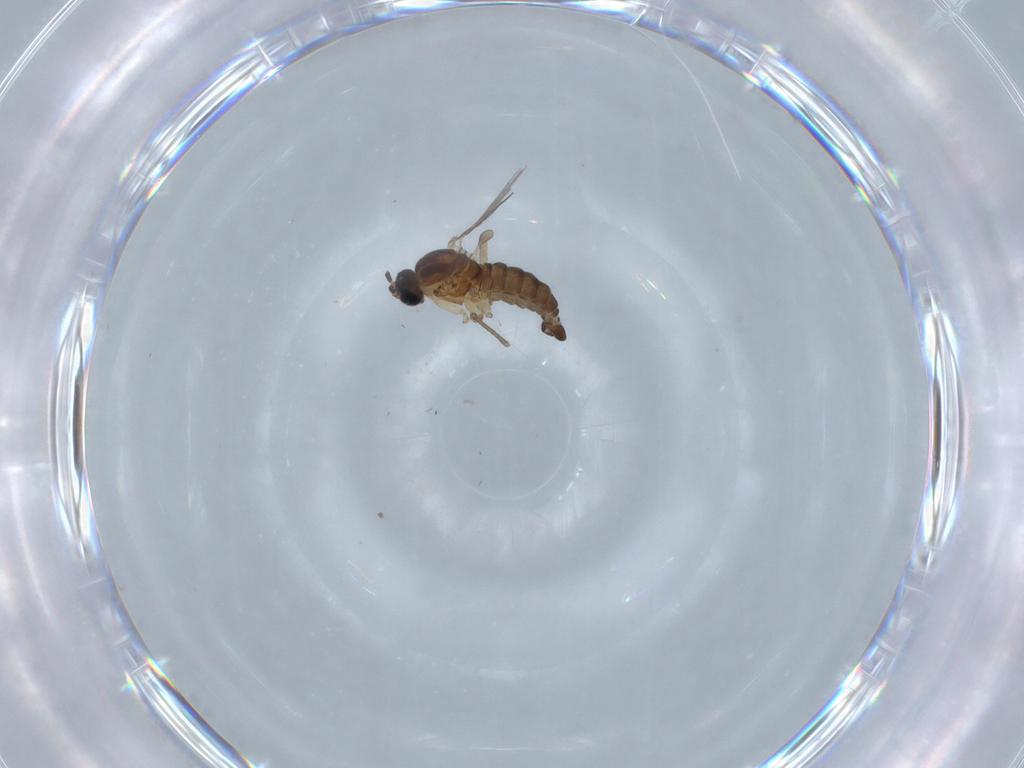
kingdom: Animalia
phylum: Arthropoda
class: Insecta
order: Diptera
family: Sciaridae
